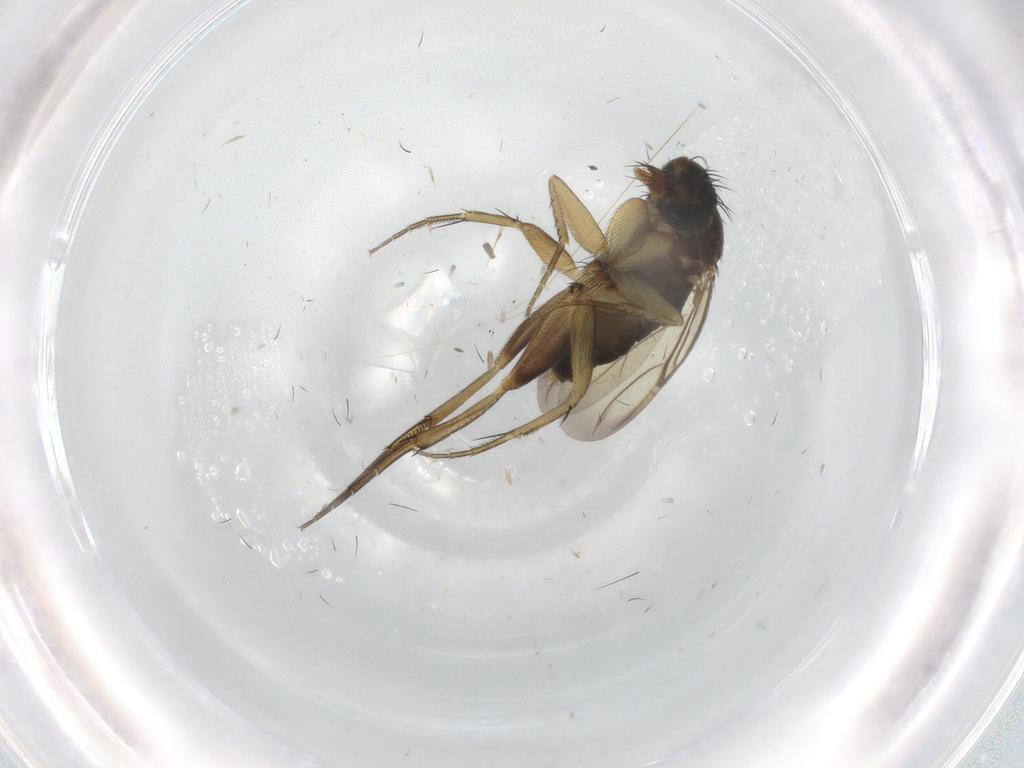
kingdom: Animalia
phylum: Arthropoda
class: Insecta
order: Diptera
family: Phoridae
